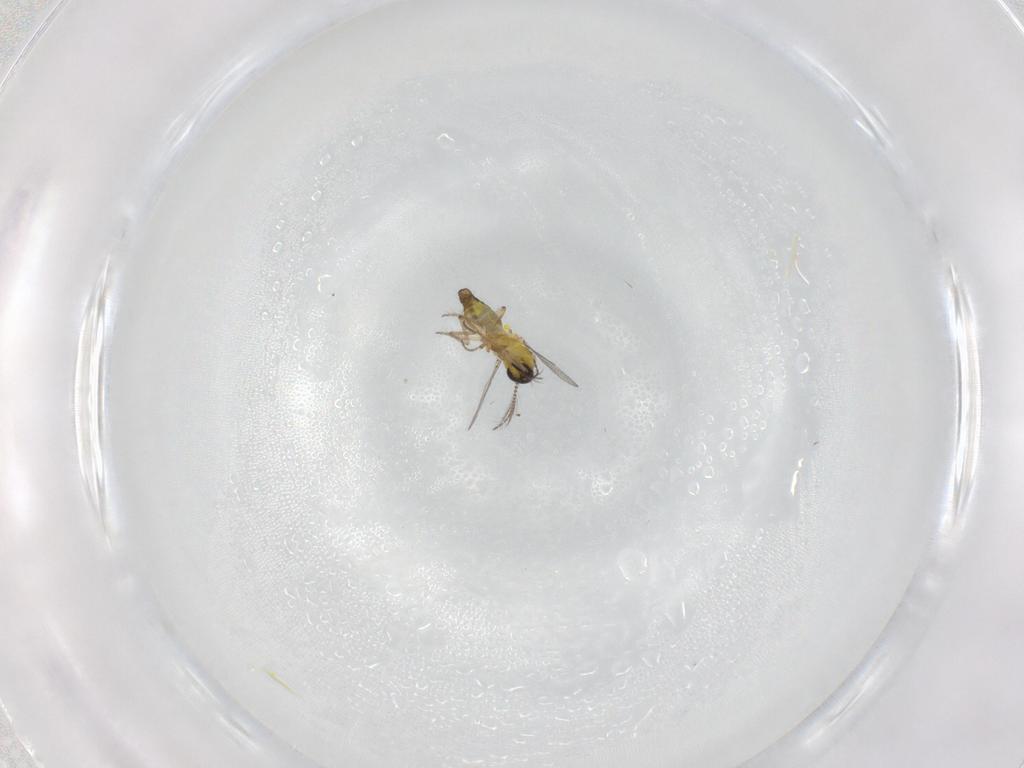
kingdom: Animalia
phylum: Arthropoda
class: Insecta
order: Diptera
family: Ceratopogonidae
